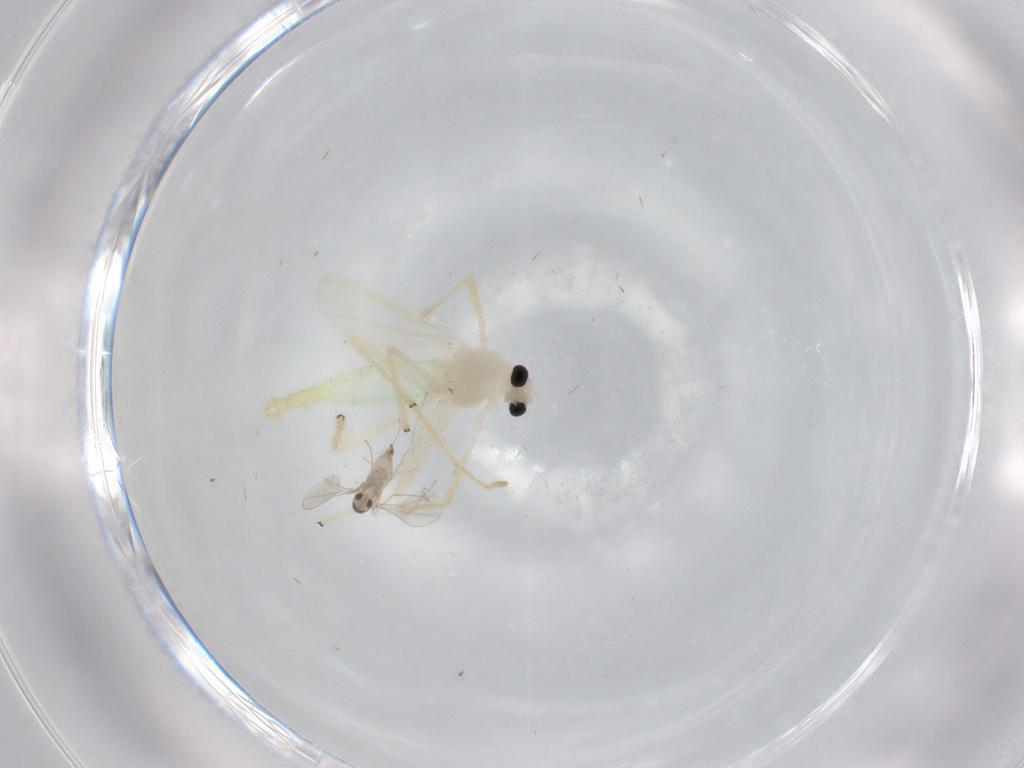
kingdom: Animalia
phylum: Arthropoda
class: Insecta
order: Diptera
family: Chironomidae
